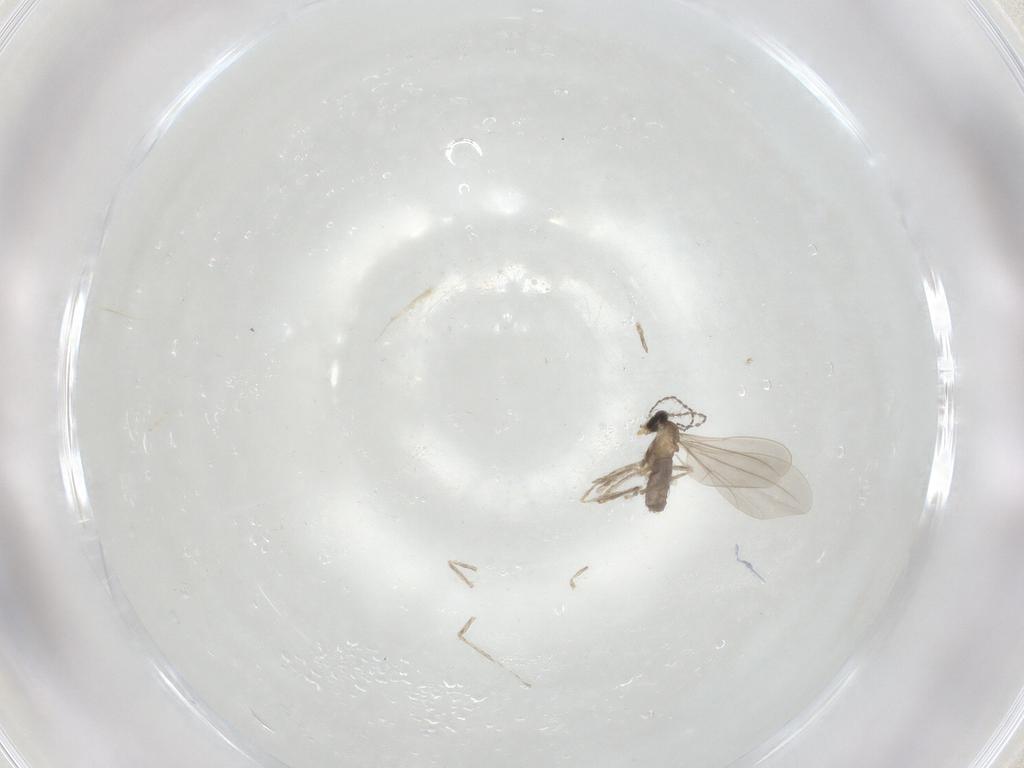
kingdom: Animalia
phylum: Arthropoda
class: Insecta
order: Diptera
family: Cecidomyiidae
